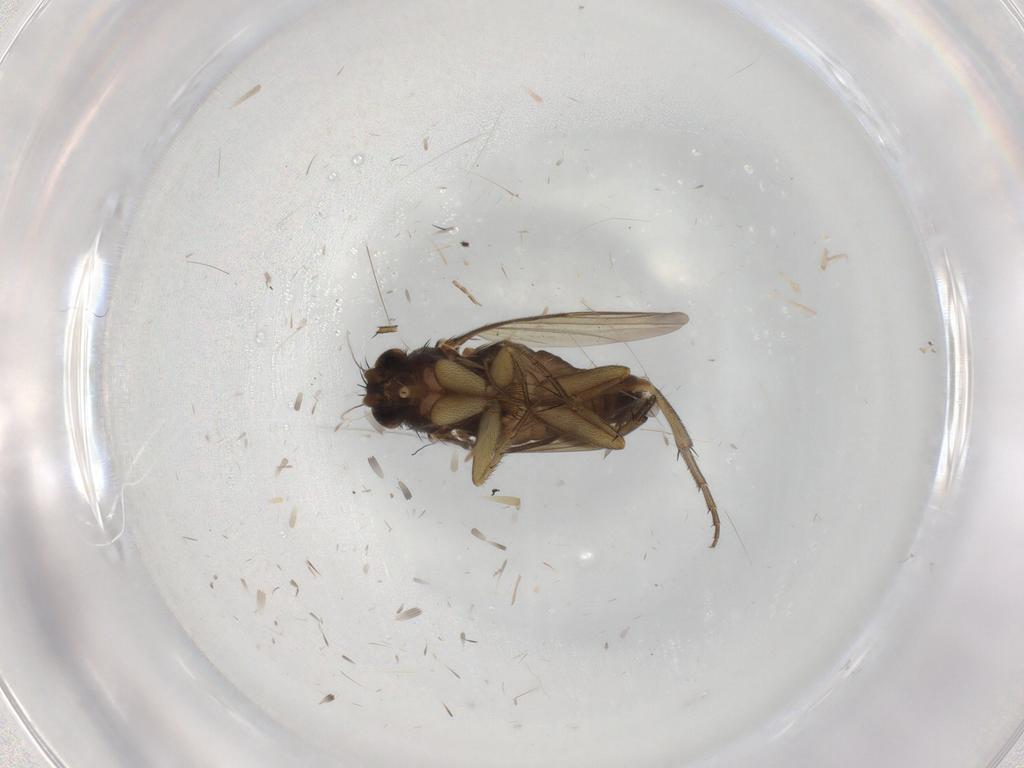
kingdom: Animalia
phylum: Arthropoda
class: Insecta
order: Diptera
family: Phoridae
